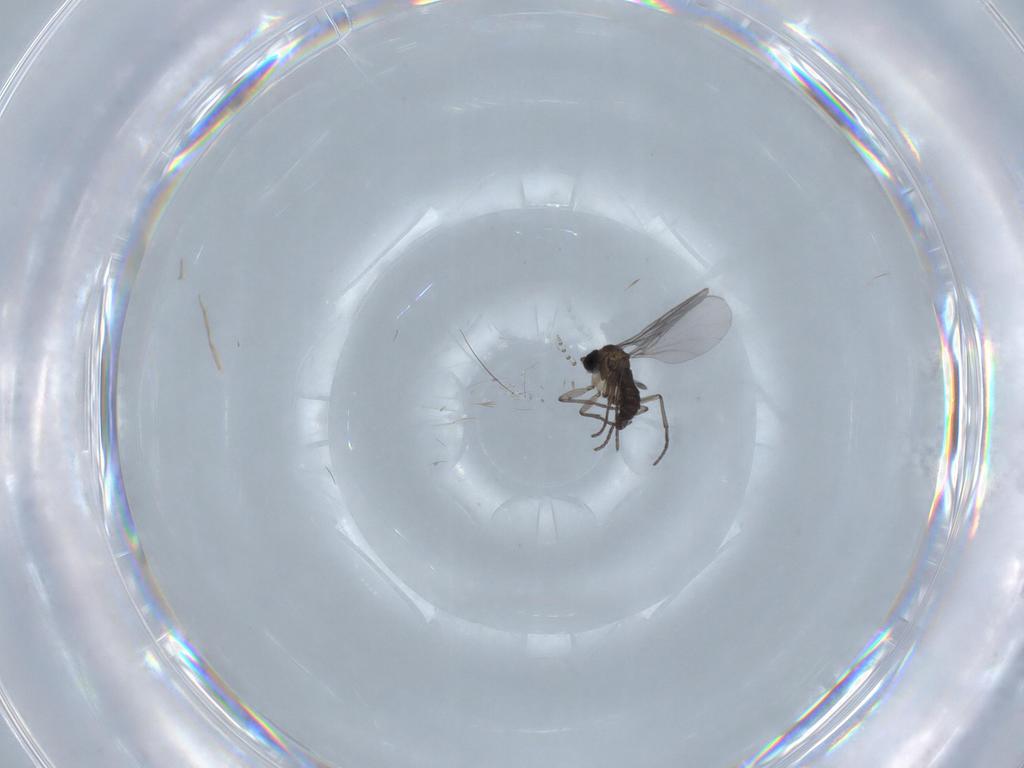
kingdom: Animalia
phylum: Arthropoda
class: Insecta
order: Diptera
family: Psychodidae
